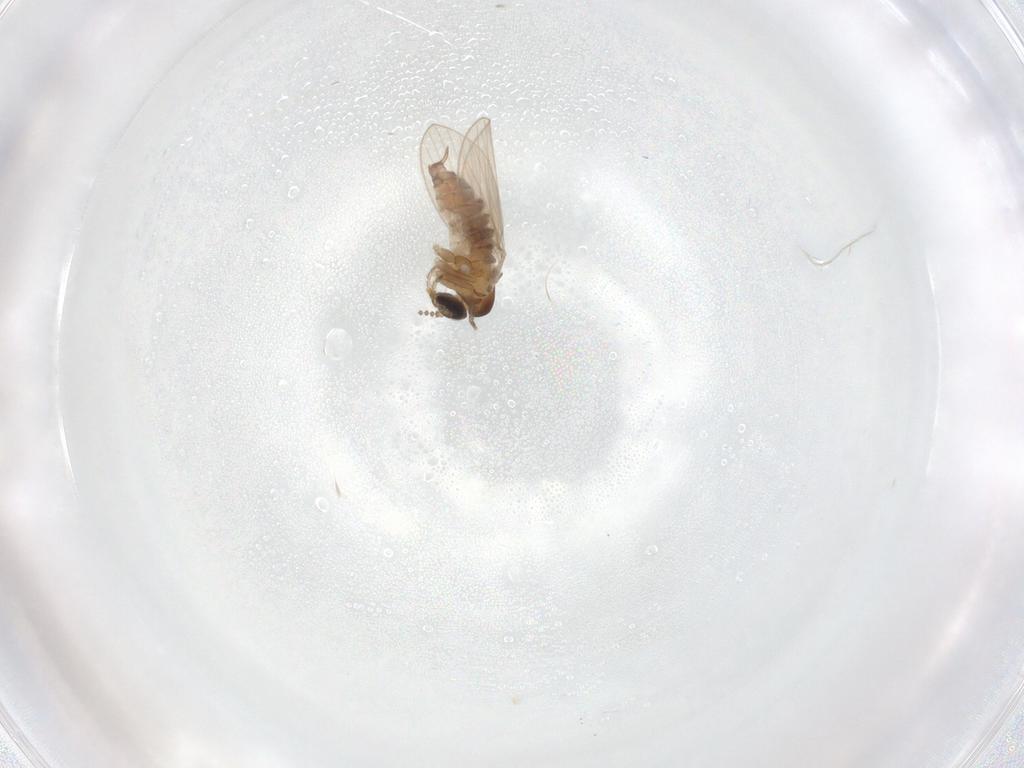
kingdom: Animalia
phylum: Arthropoda
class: Insecta
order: Diptera
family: Psychodidae
